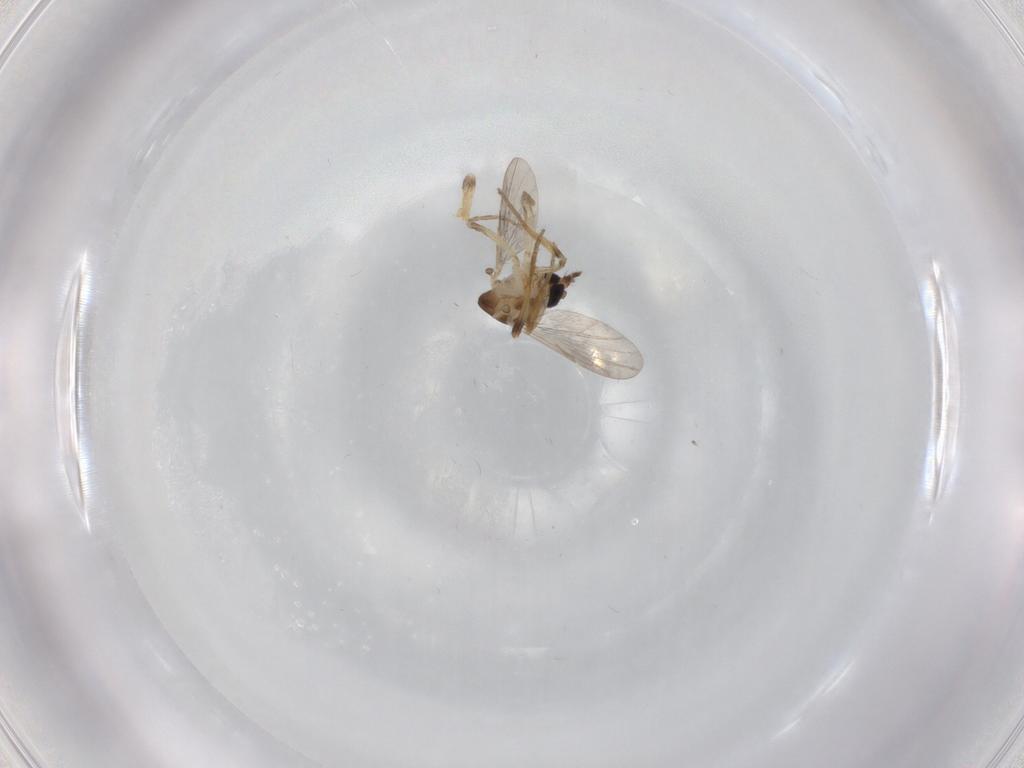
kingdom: Animalia
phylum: Arthropoda
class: Insecta
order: Diptera
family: Ceratopogonidae
